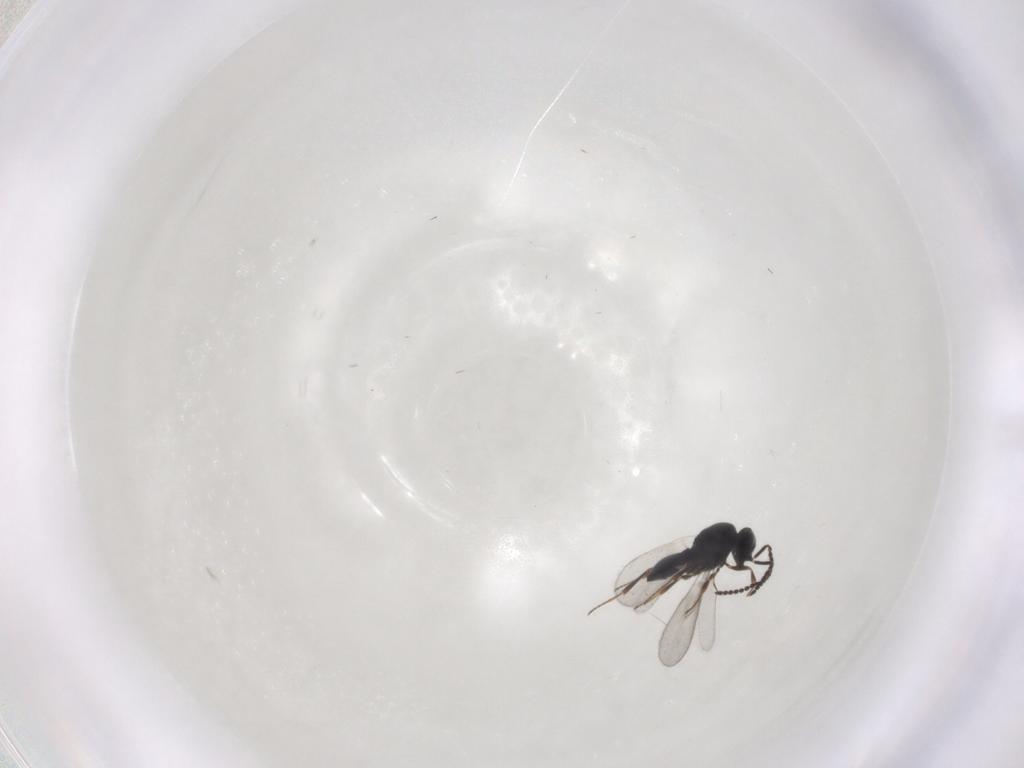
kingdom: Animalia
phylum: Arthropoda
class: Insecta
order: Hymenoptera
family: Scelionidae
